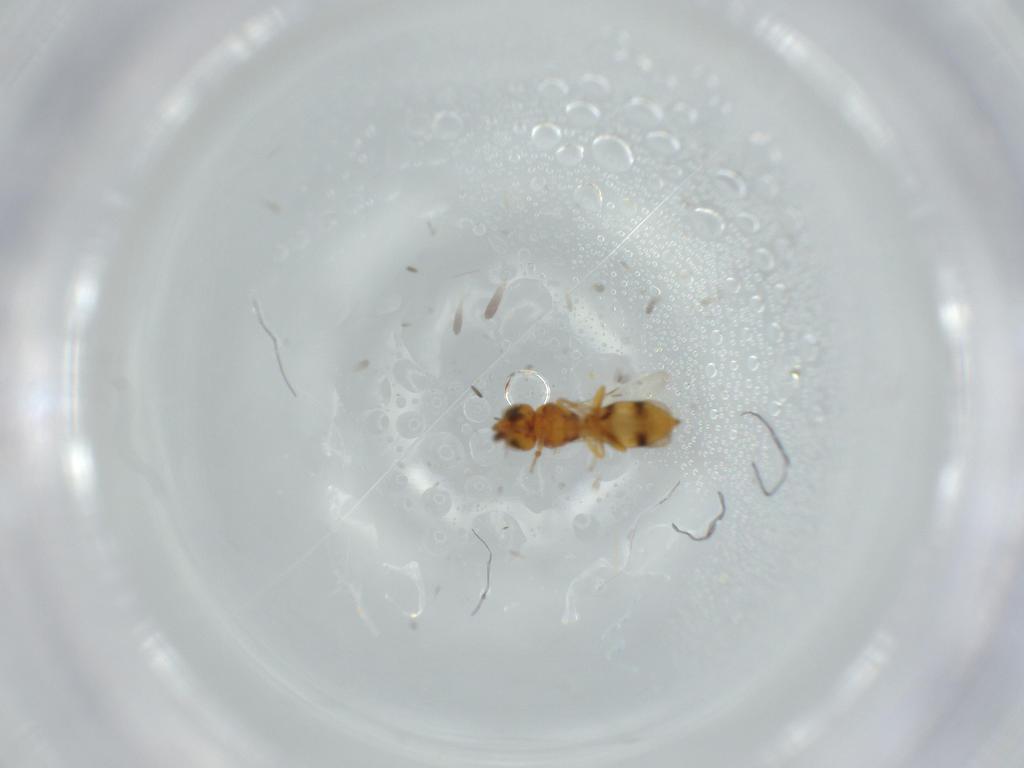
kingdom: Animalia
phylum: Arthropoda
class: Insecta
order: Hymenoptera
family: Scelionidae
